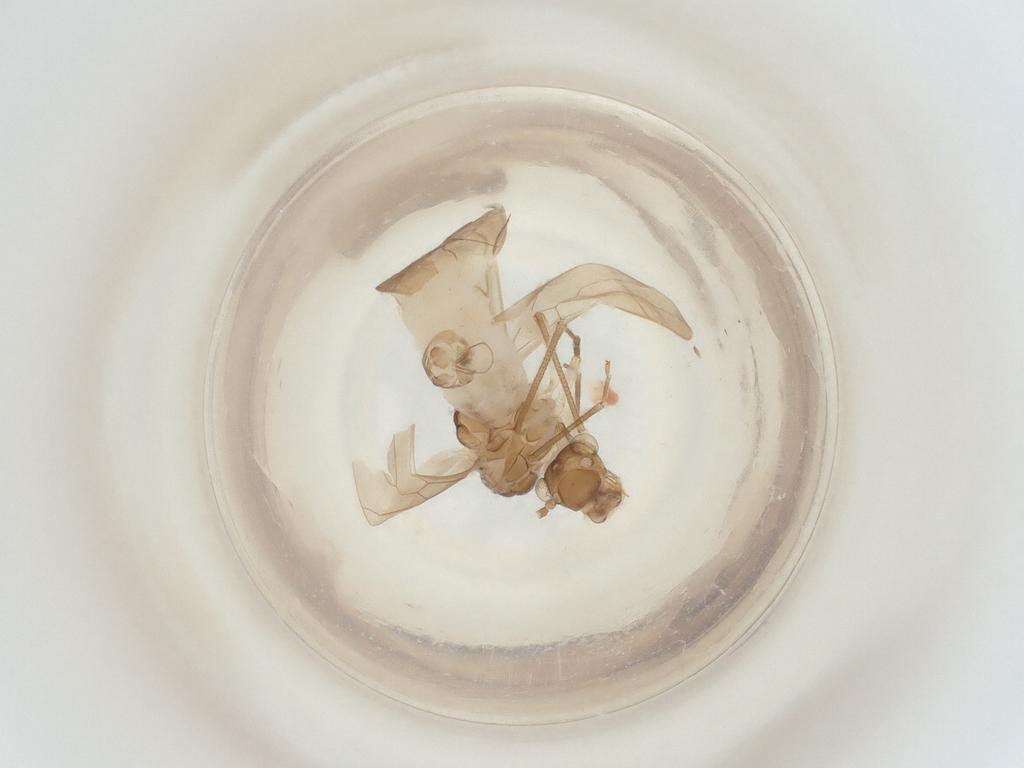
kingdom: Animalia
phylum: Arthropoda
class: Insecta
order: Psocodea
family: Caeciliusidae
